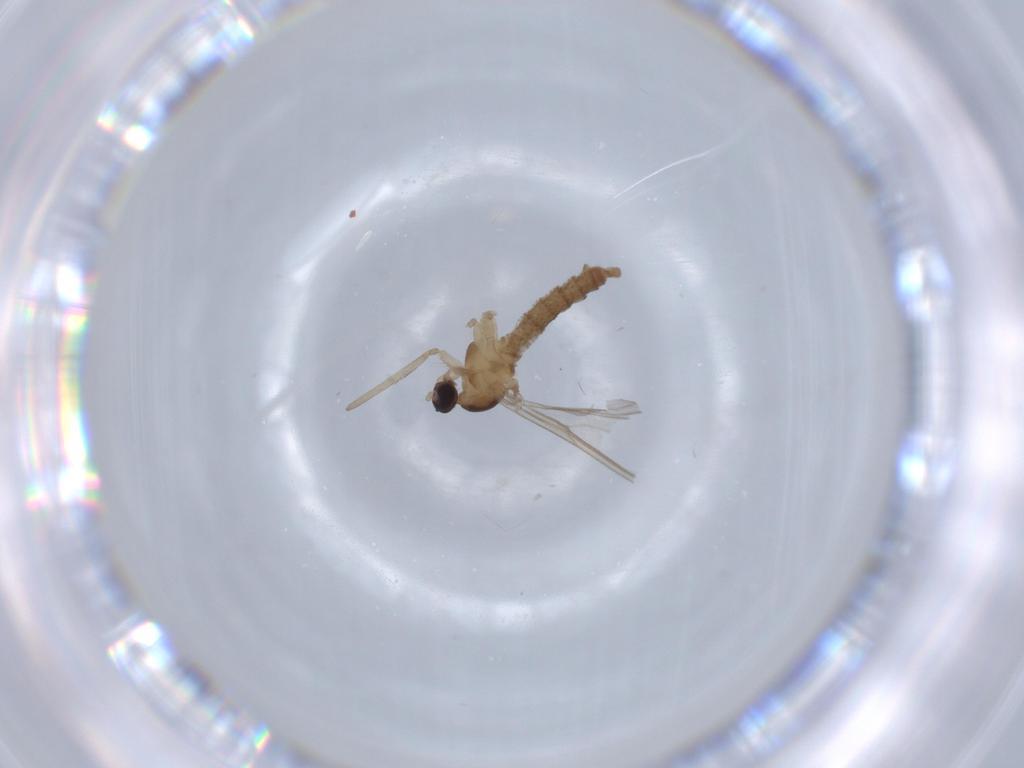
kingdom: Animalia
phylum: Arthropoda
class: Insecta
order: Diptera
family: Cecidomyiidae
